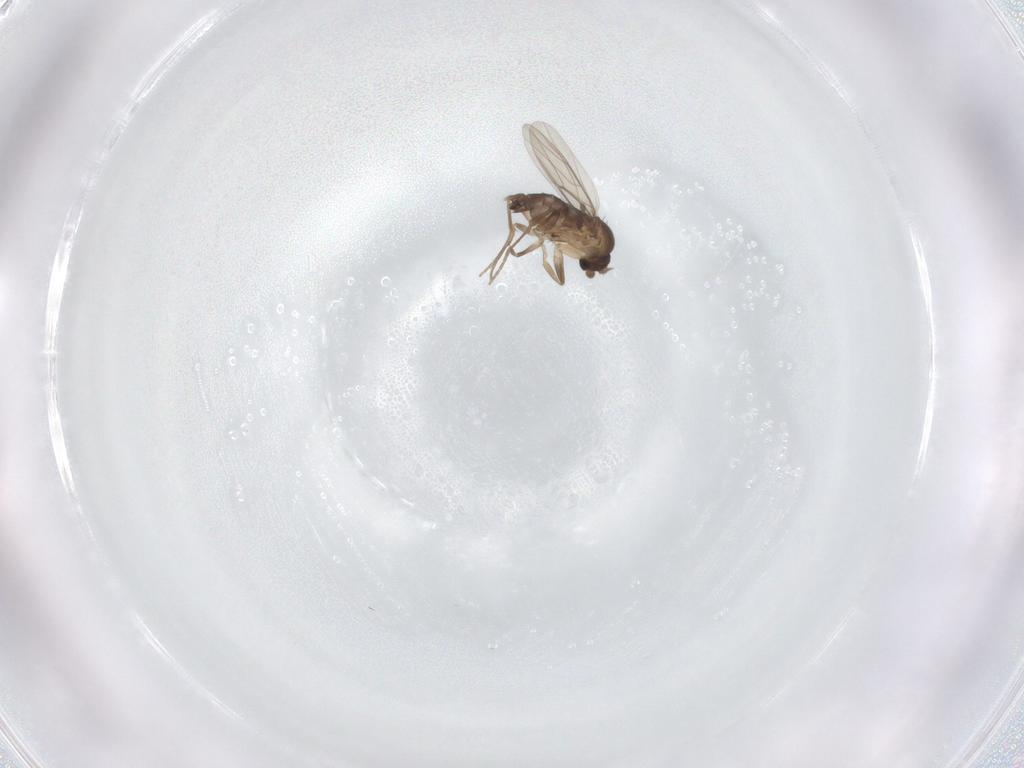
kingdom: Animalia
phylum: Arthropoda
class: Insecta
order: Diptera
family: Phoridae
